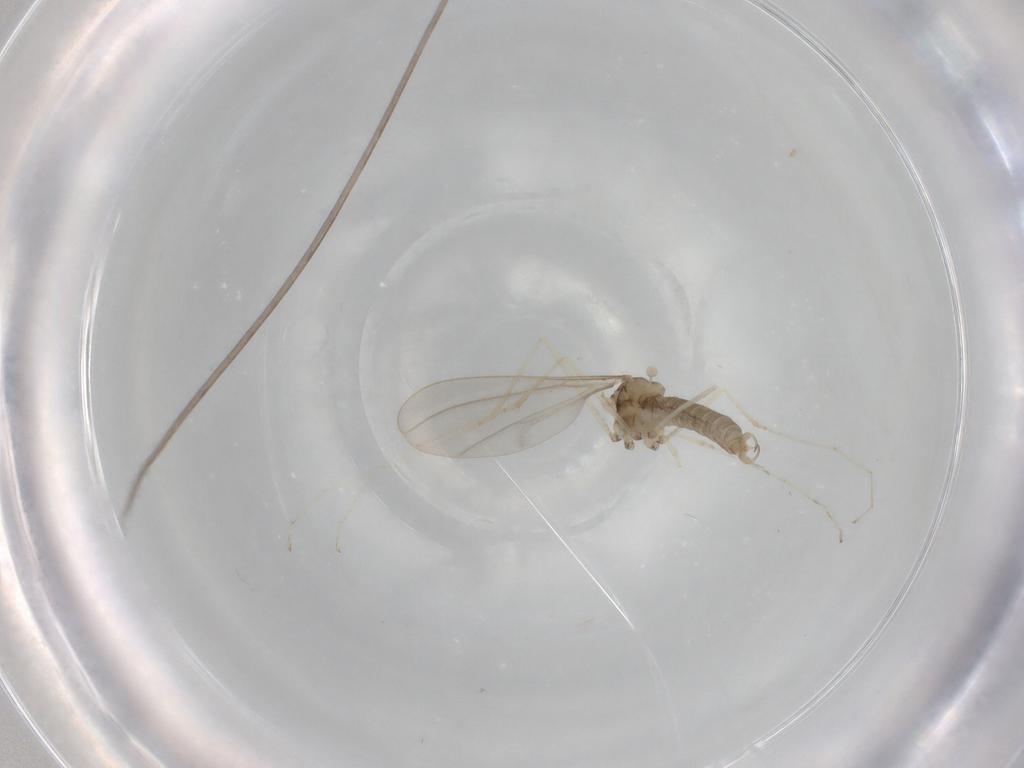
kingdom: Animalia
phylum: Arthropoda
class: Insecta
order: Diptera
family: Cecidomyiidae
